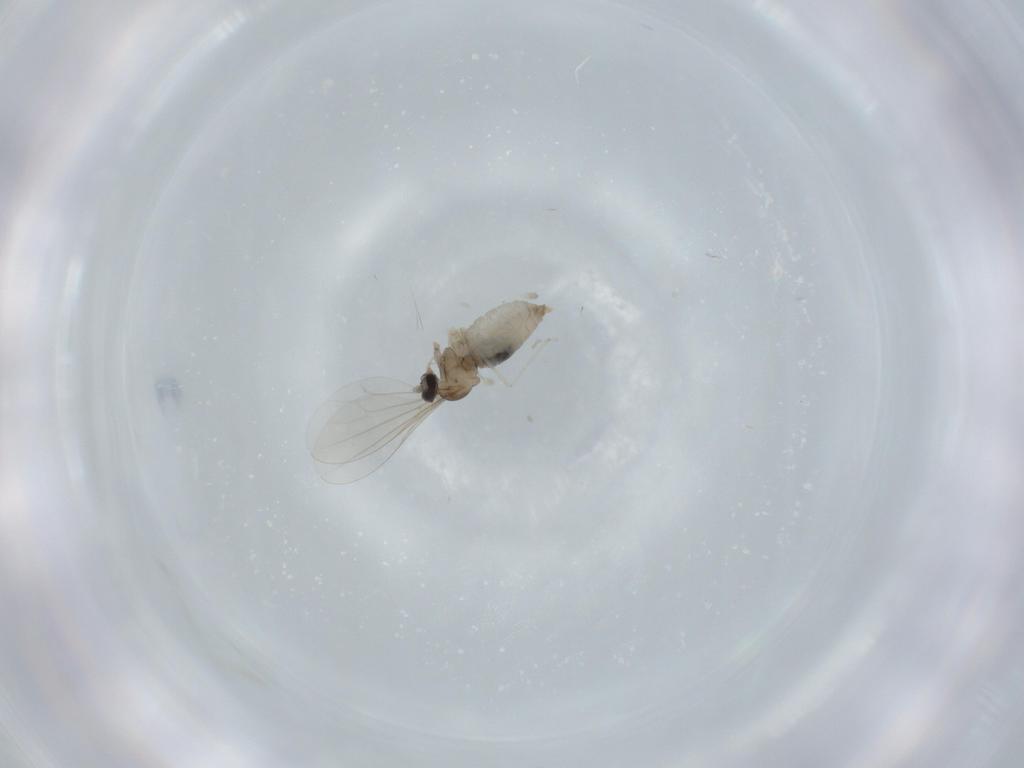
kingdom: Animalia
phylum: Arthropoda
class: Insecta
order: Diptera
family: Cecidomyiidae
